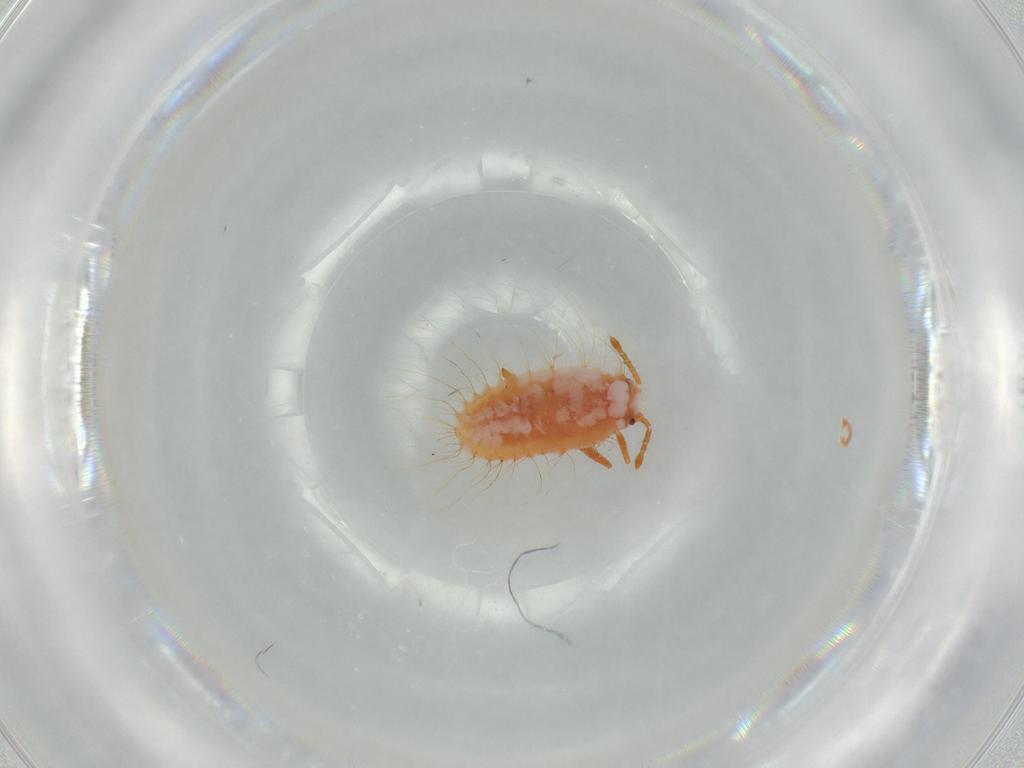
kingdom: Animalia
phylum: Arthropoda
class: Insecta
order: Hemiptera
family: Coccoidea_incertae_sedis
